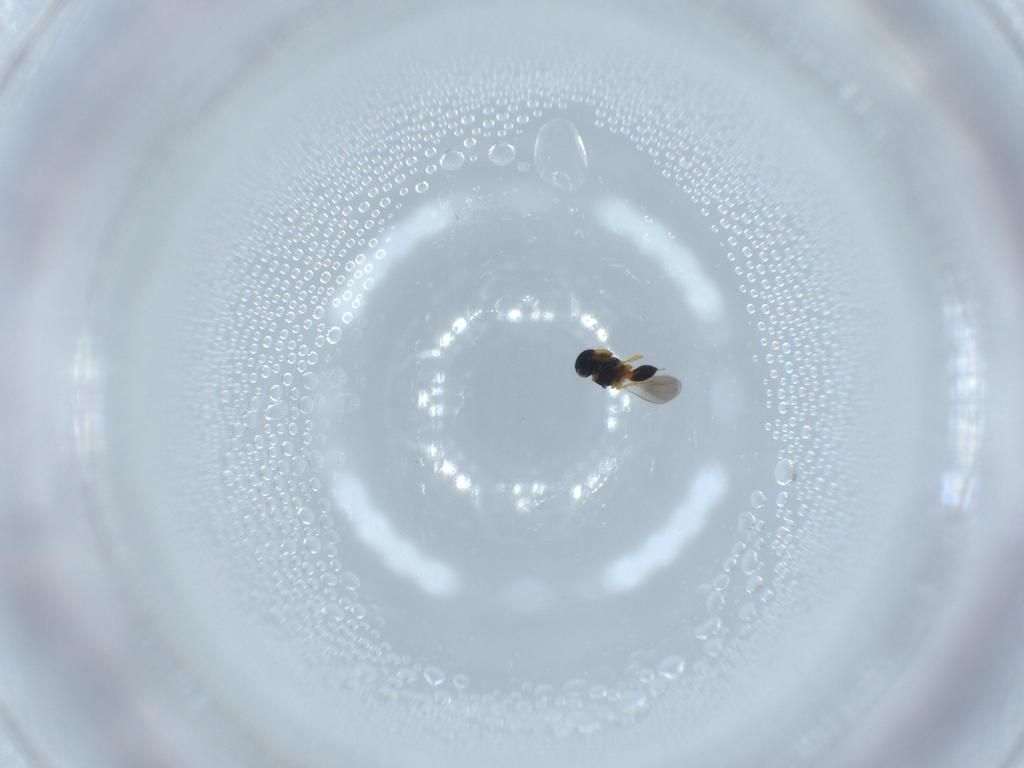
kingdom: Animalia
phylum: Arthropoda
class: Insecta
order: Hymenoptera
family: Platygastridae
